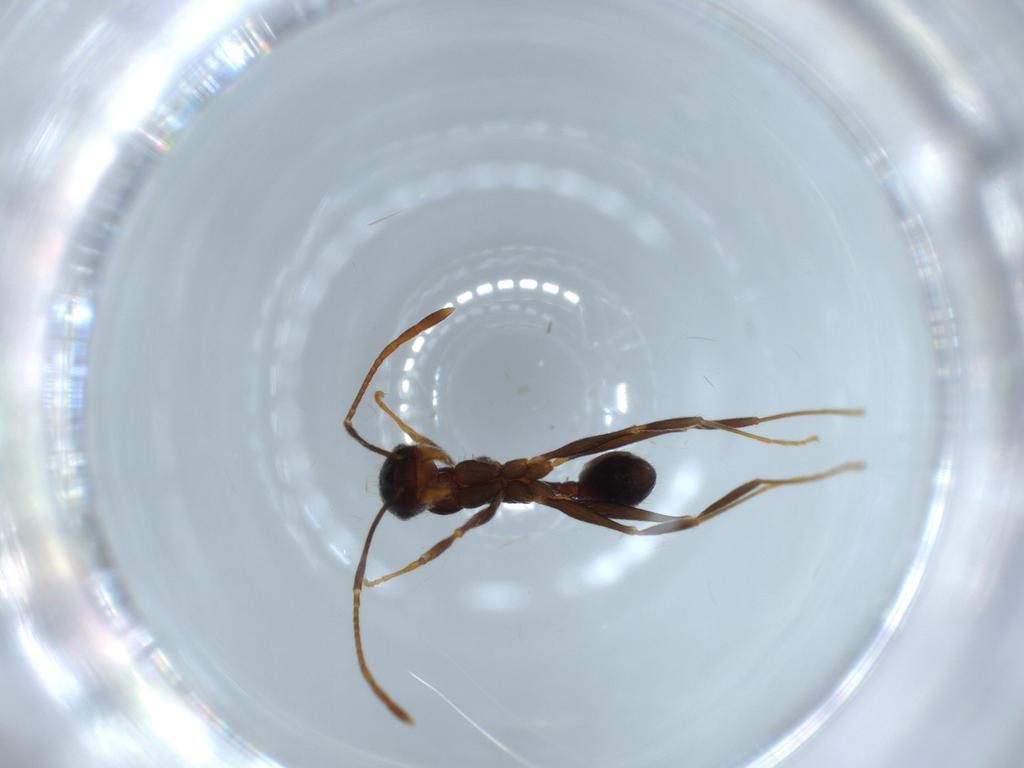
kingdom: Animalia
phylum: Arthropoda
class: Insecta
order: Hymenoptera
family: Formicidae
